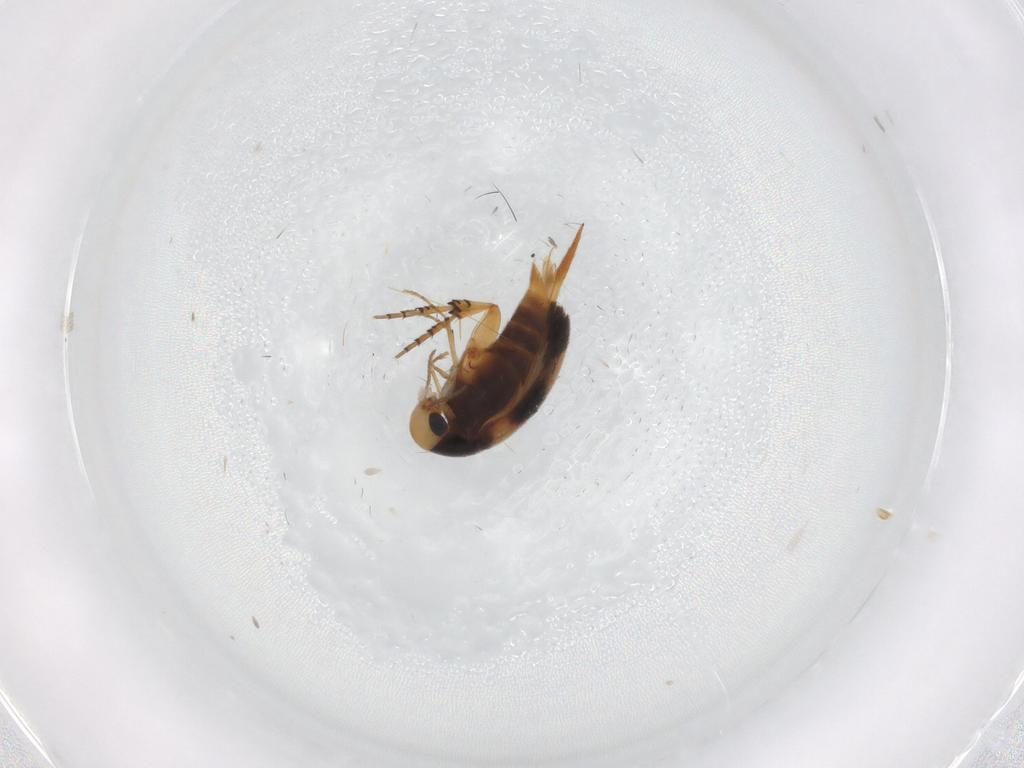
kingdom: Animalia
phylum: Arthropoda
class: Insecta
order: Coleoptera
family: Mordellidae
